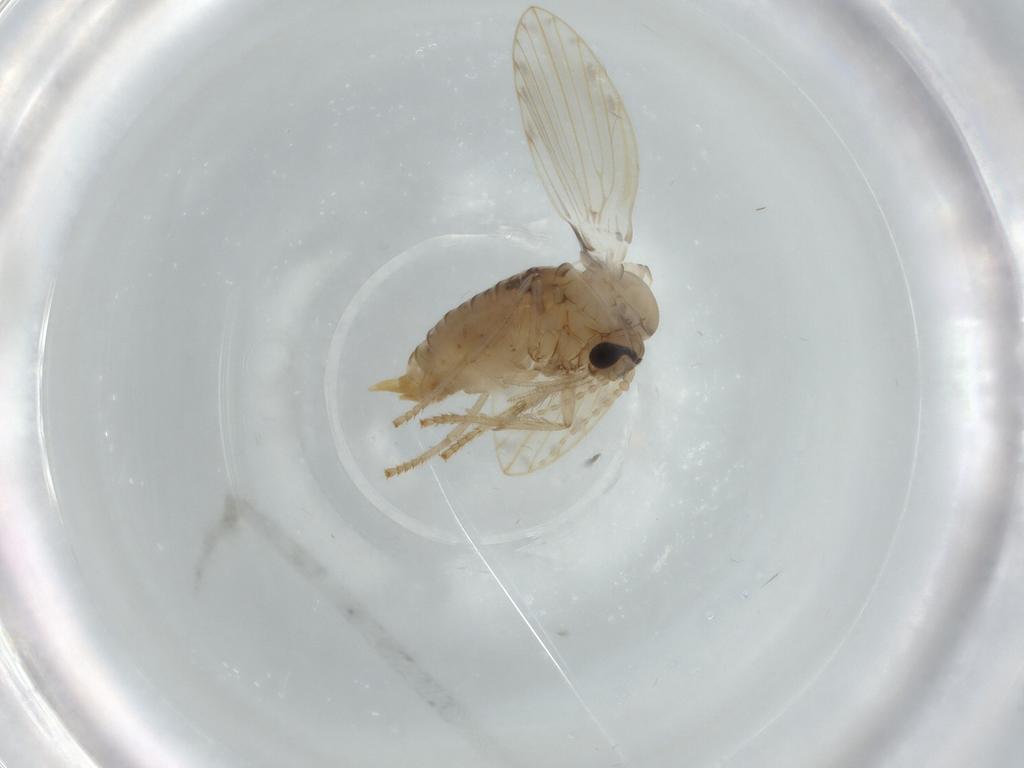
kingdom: Animalia
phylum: Arthropoda
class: Insecta
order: Diptera
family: Psychodidae
